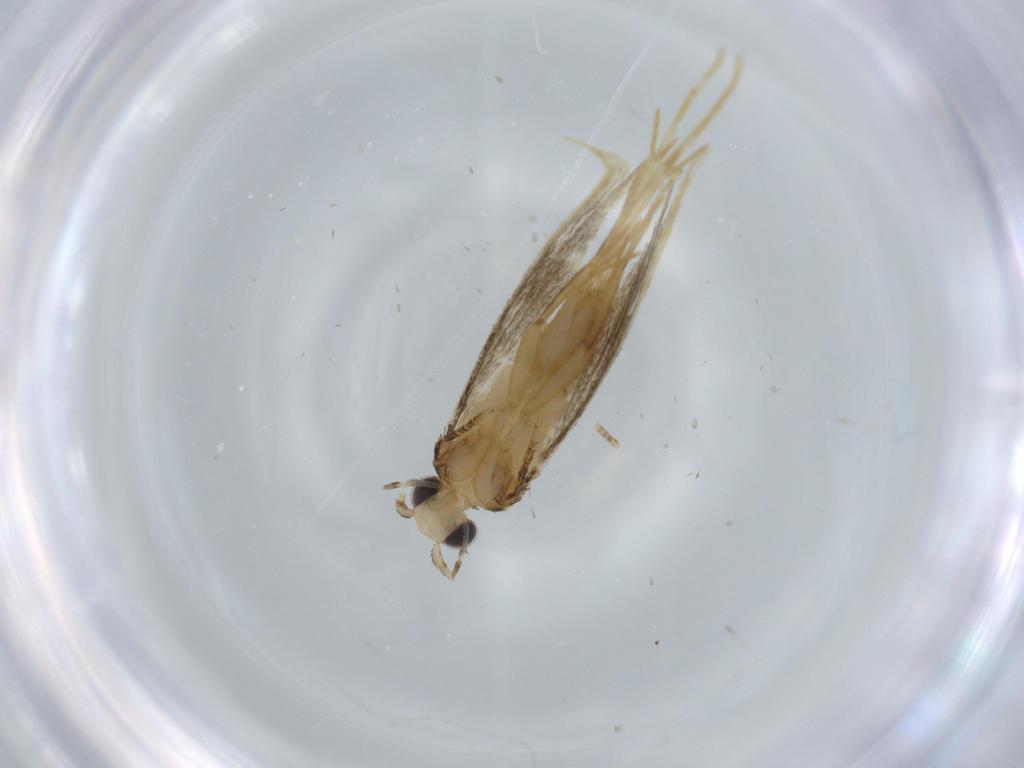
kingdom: Animalia
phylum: Arthropoda
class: Insecta
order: Lepidoptera
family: Tineidae
